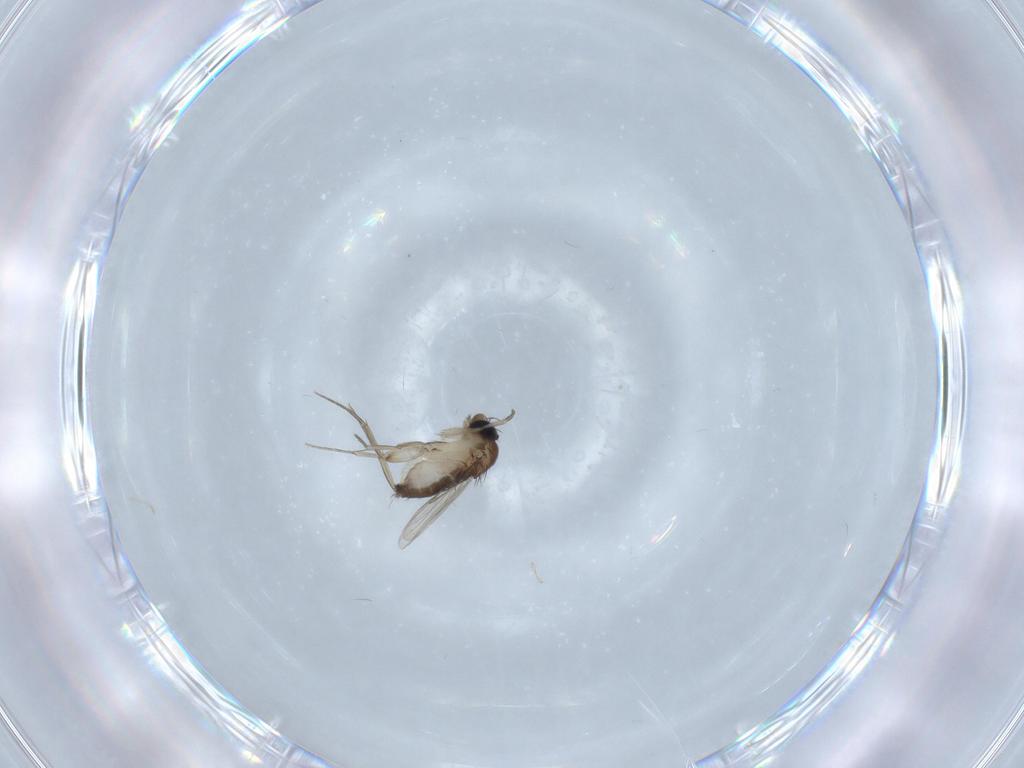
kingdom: Animalia
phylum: Arthropoda
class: Insecta
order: Diptera
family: Phoridae
